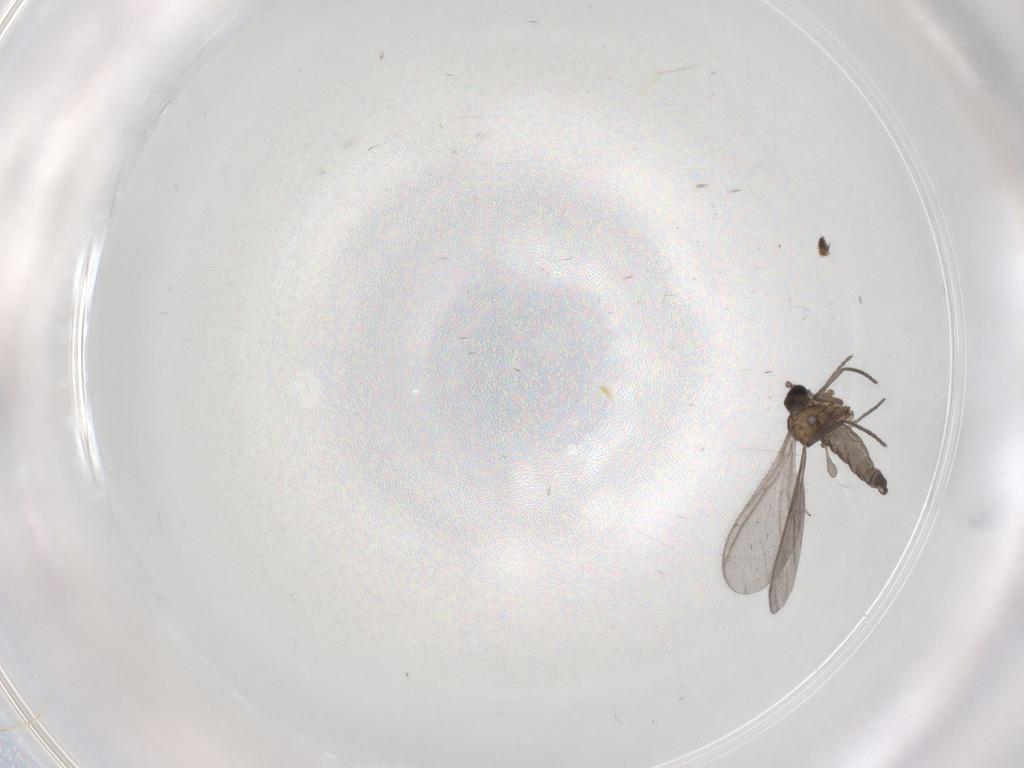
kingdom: Animalia
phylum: Arthropoda
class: Insecta
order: Diptera
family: Sciaridae
